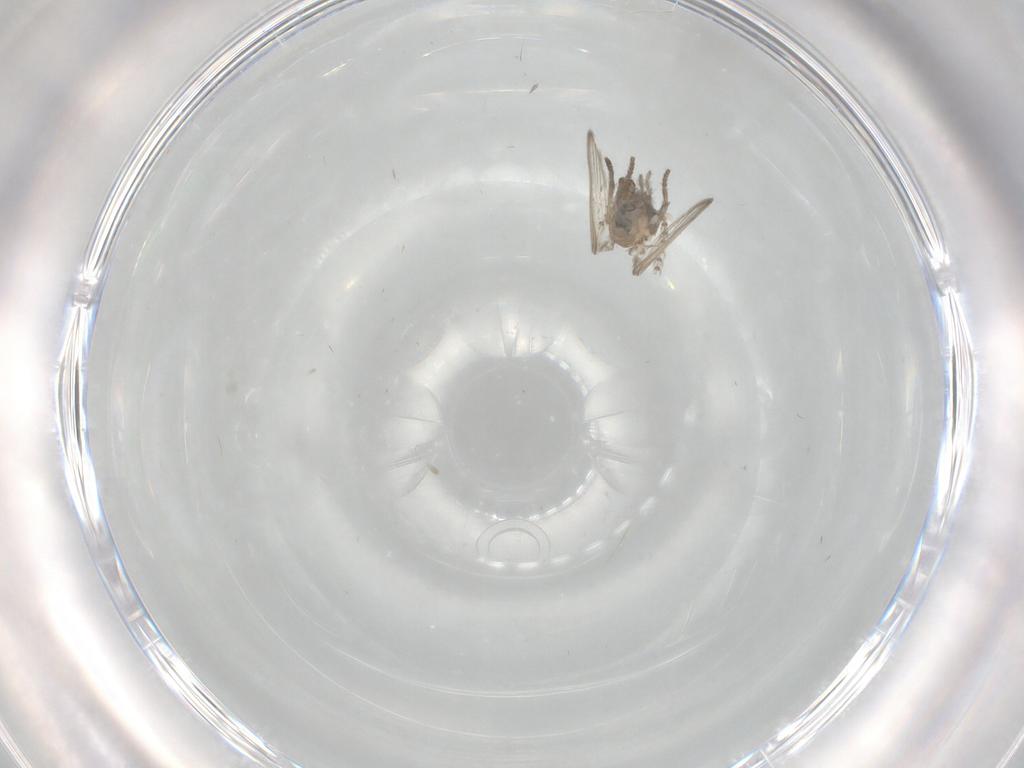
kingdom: Animalia
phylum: Arthropoda
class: Insecta
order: Diptera
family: Psychodidae
